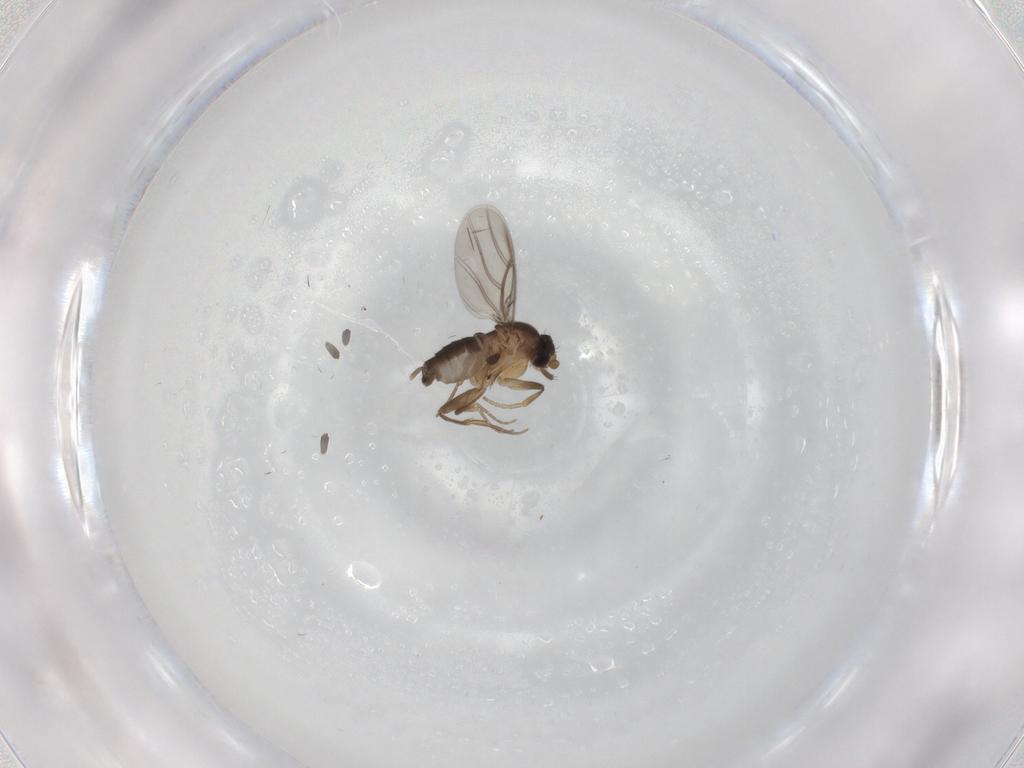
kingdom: Animalia
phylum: Arthropoda
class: Insecta
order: Diptera
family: Phoridae
